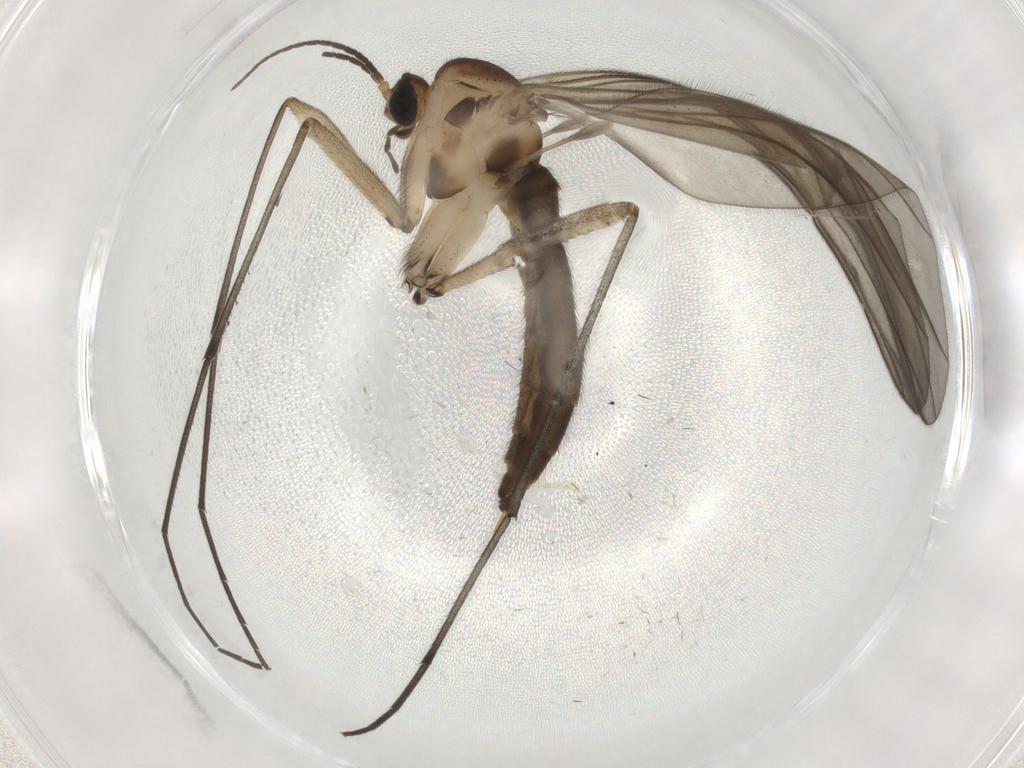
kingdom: Animalia
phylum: Arthropoda
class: Insecta
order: Diptera
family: Sciaridae
